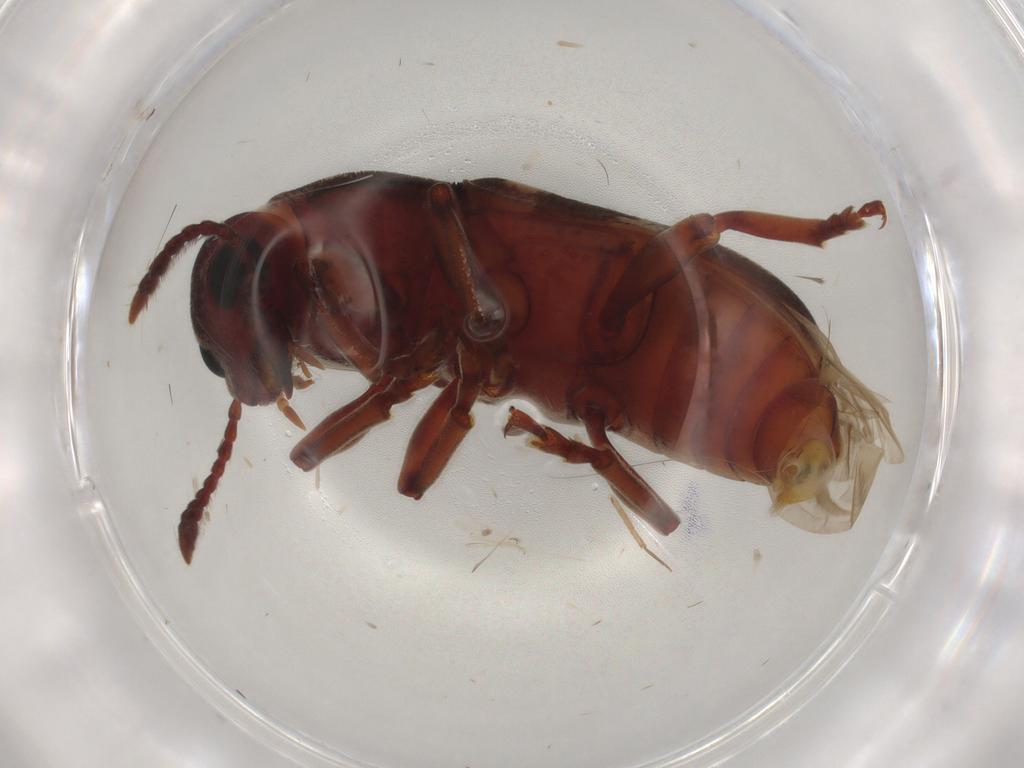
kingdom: Animalia
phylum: Arthropoda
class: Insecta
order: Coleoptera
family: Anthribidae
